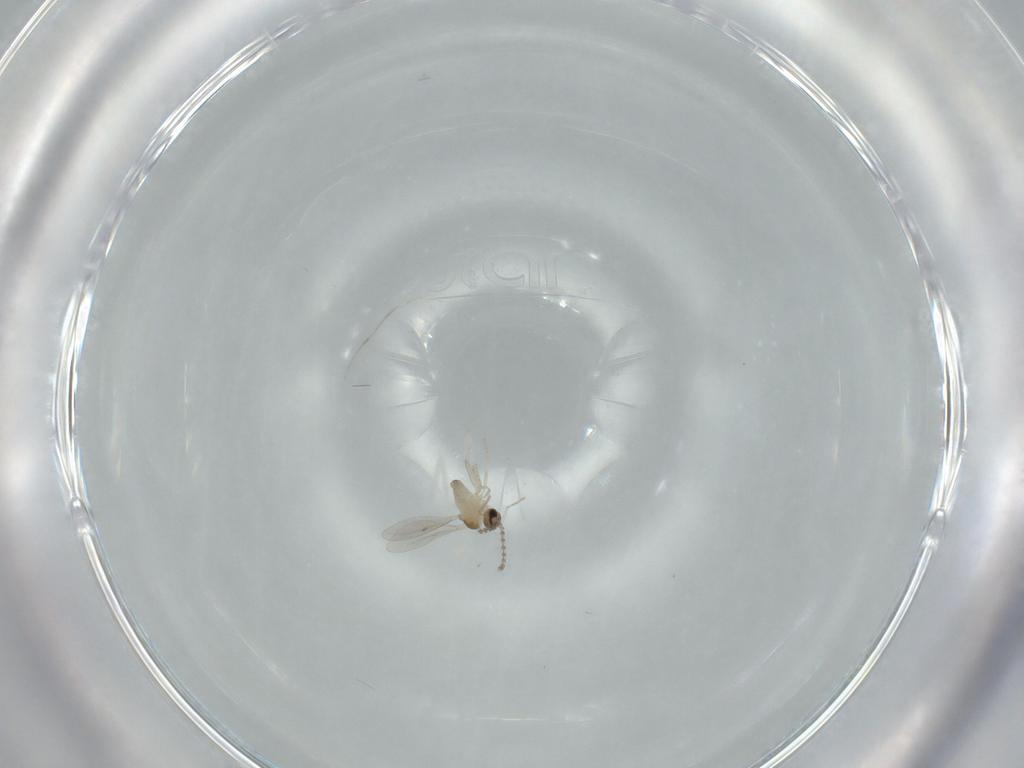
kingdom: Animalia
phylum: Arthropoda
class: Insecta
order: Diptera
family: Cecidomyiidae
